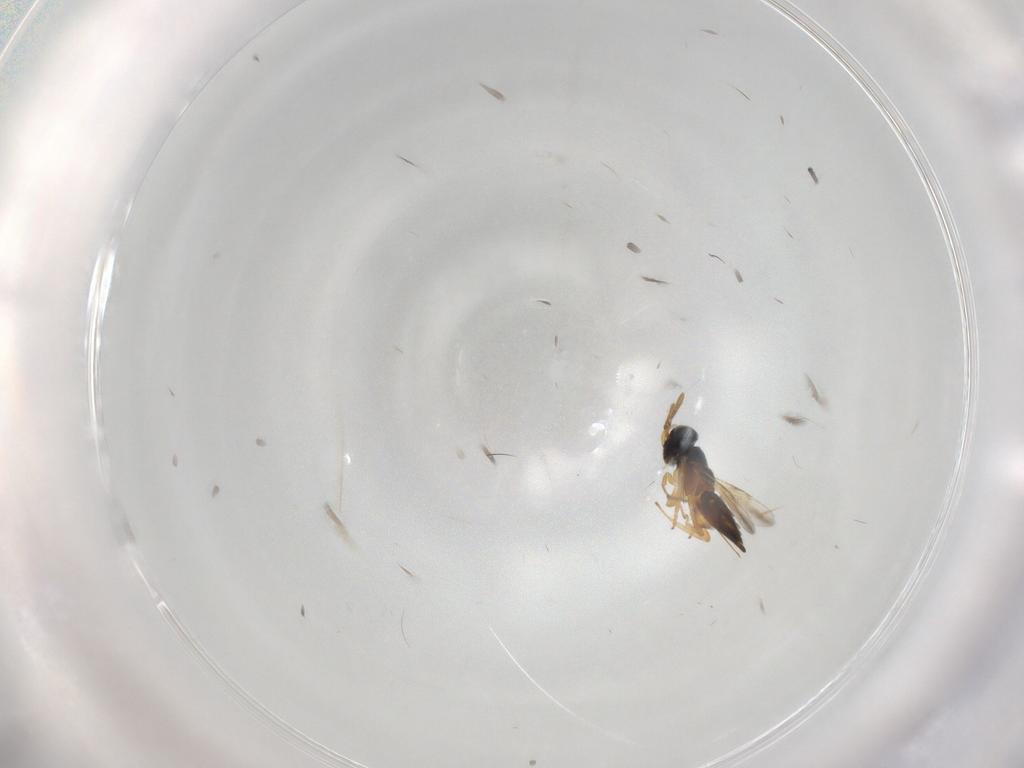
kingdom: Animalia
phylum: Arthropoda
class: Insecta
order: Hymenoptera
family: Encyrtidae
